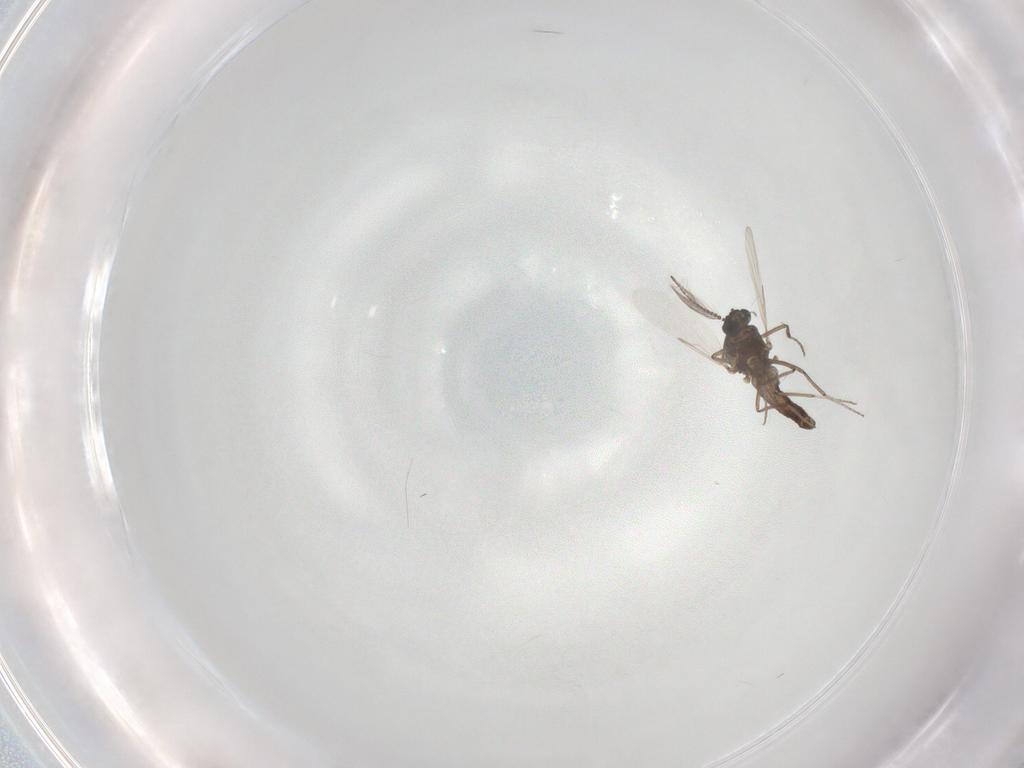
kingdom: Animalia
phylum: Arthropoda
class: Insecta
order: Diptera
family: Ceratopogonidae
